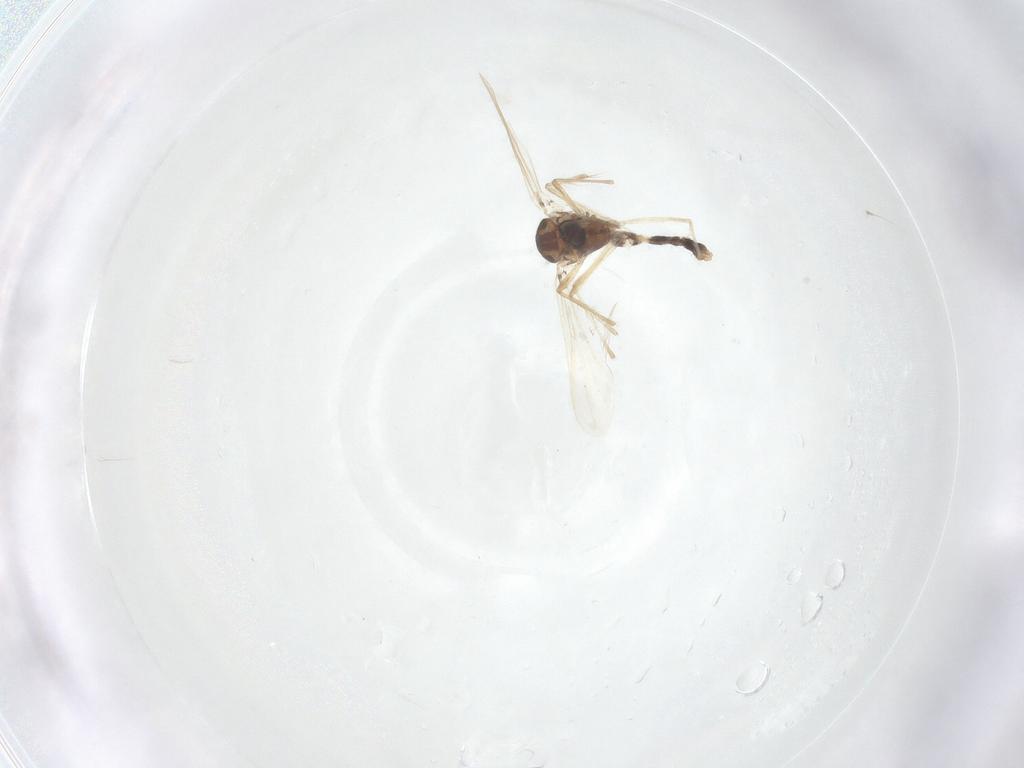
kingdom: Animalia
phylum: Arthropoda
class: Insecta
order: Diptera
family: Chironomidae
